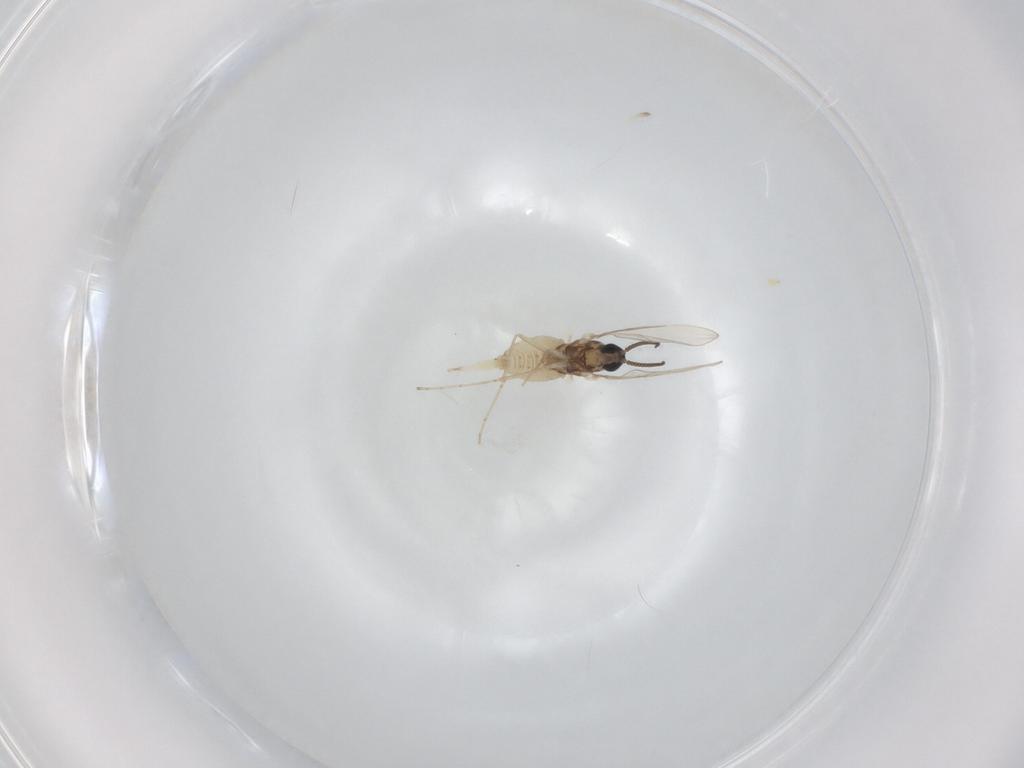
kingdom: Animalia
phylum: Arthropoda
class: Insecta
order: Diptera
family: Cecidomyiidae
